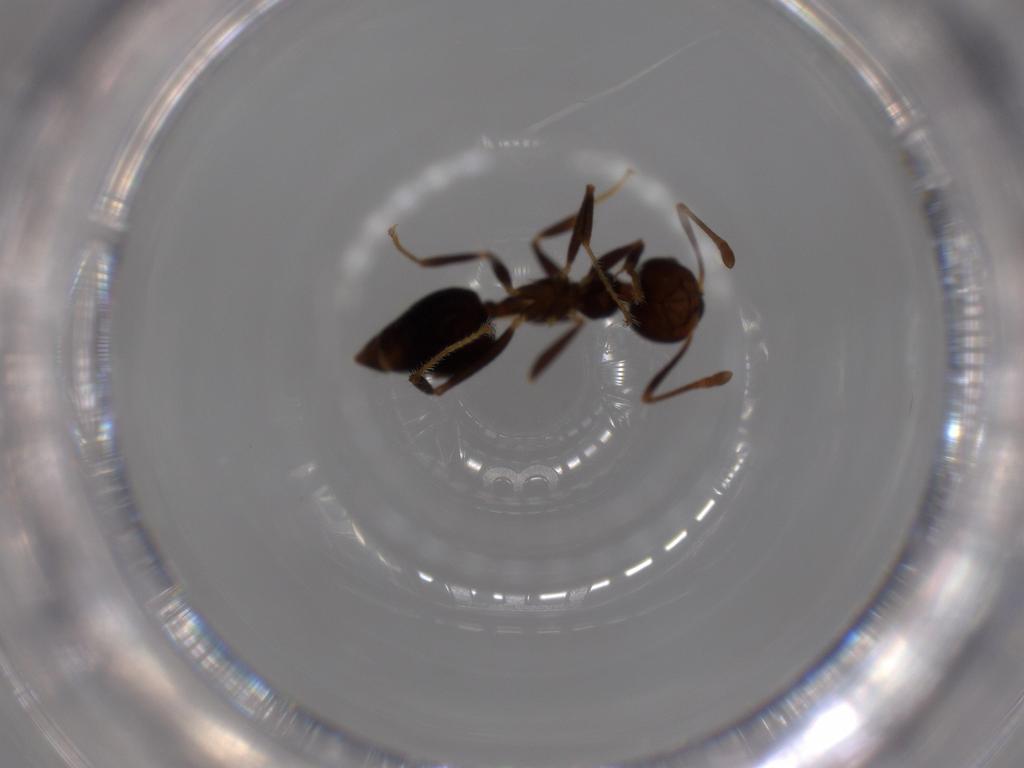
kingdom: Animalia
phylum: Arthropoda
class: Insecta
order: Hymenoptera
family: Formicidae
